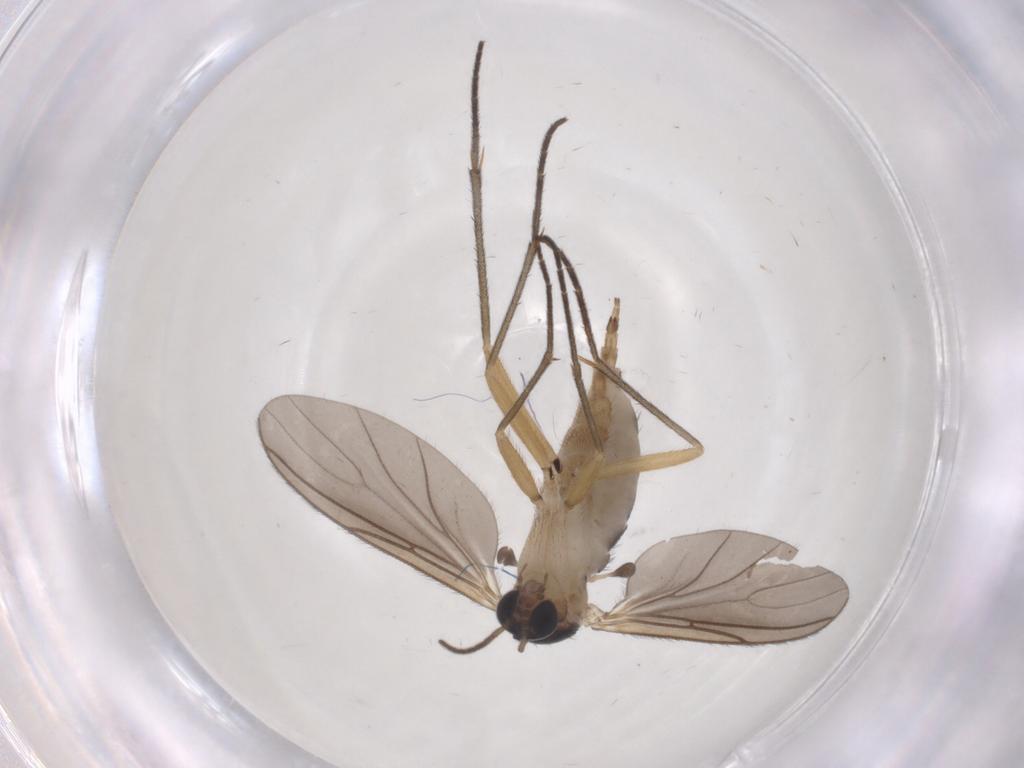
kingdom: Animalia
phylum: Arthropoda
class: Insecta
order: Diptera
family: Sciaridae
